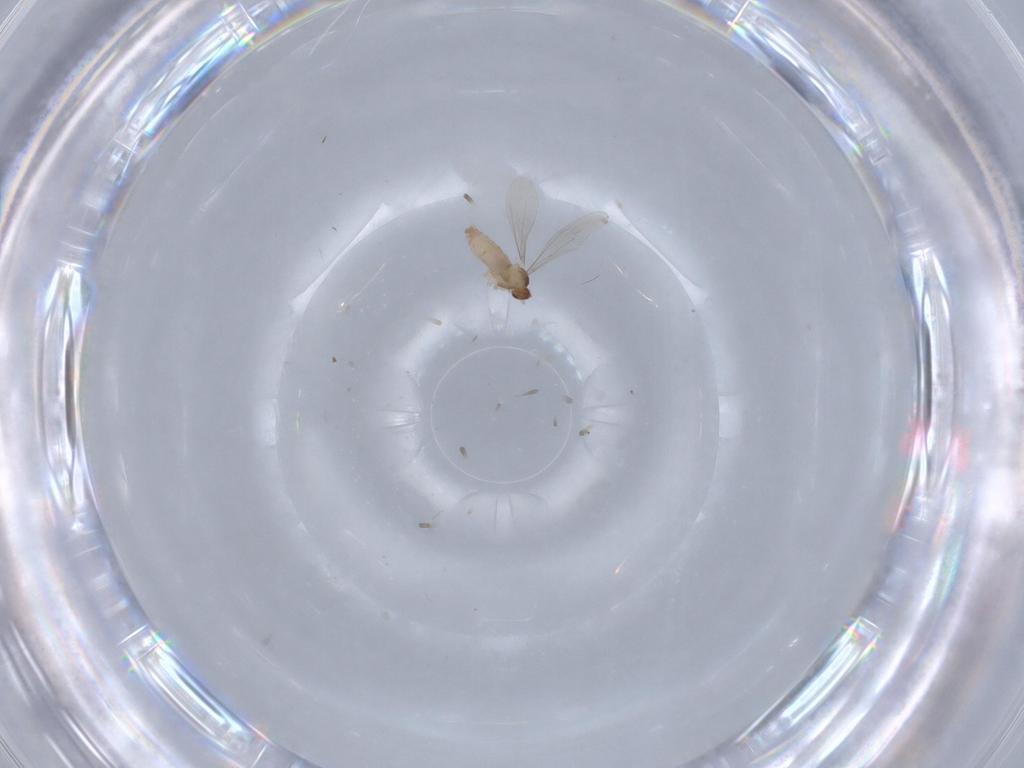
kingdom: Animalia
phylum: Arthropoda
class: Insecta
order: Diptera
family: Cecidomyiidae
